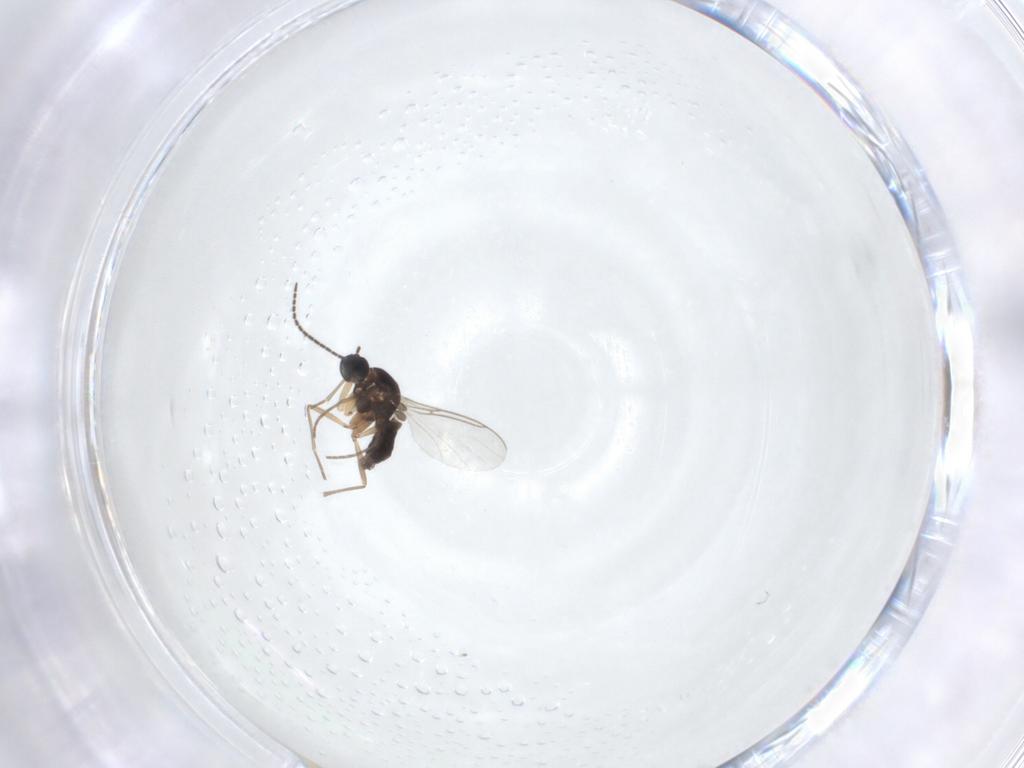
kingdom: Animalia
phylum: Arthropoda
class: Insecta
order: Diptera
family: Sciaridae
